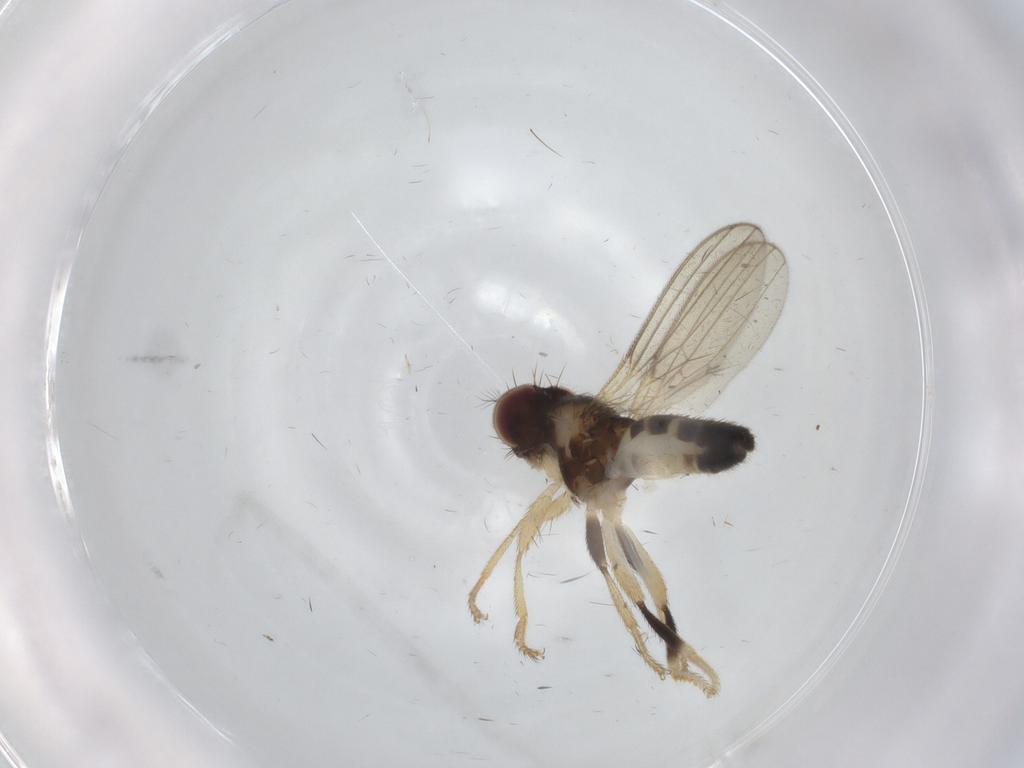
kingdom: Animalia
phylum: Arthropoda
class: Insecta
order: Diptera
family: Periscelididae
